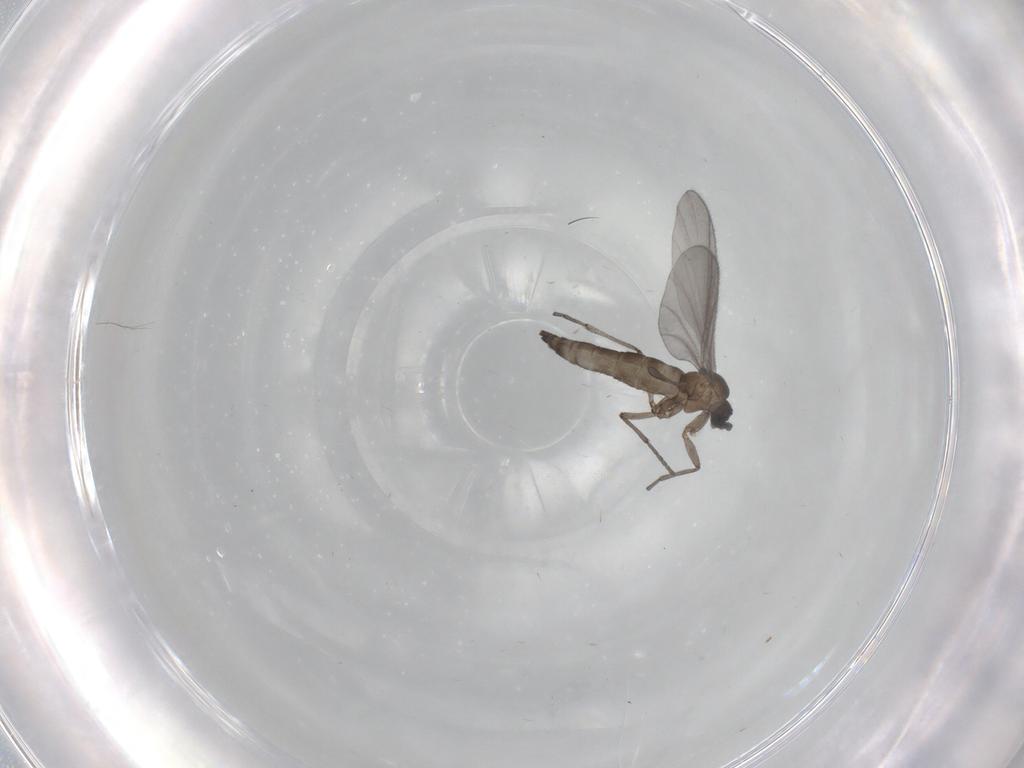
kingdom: Animalia
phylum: Arthropoda
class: Insecta
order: Diptera
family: Sciaridae
